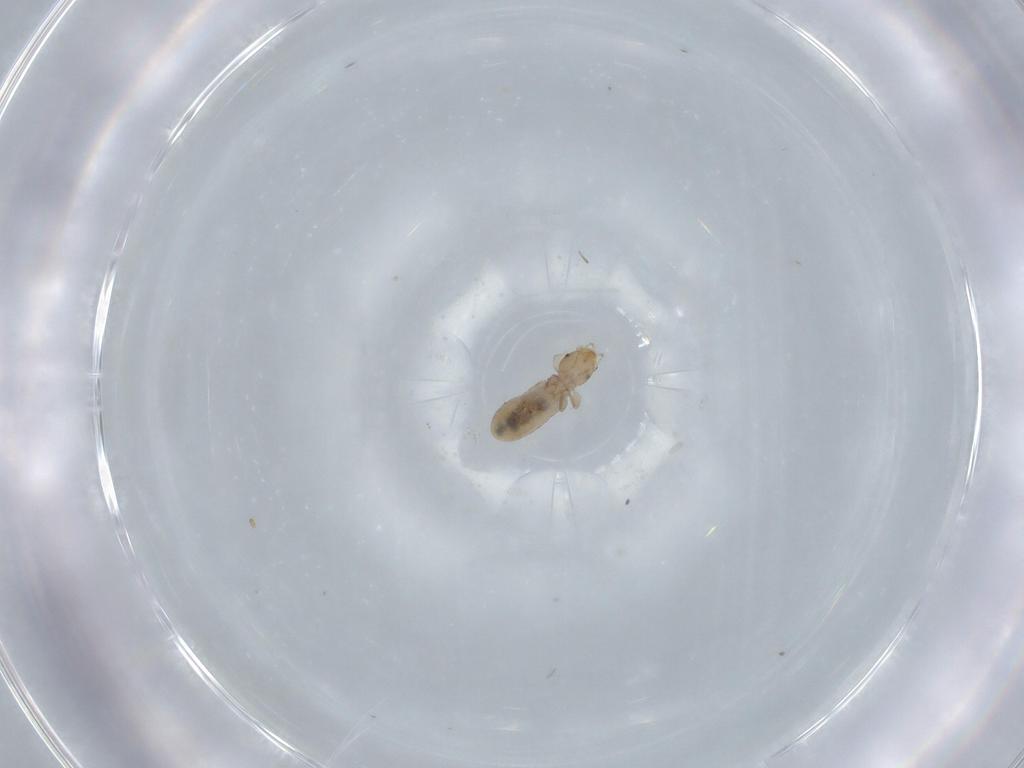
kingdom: Animalia
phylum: Arthropoda
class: Insecta
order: Psocodea
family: Liposcelididae
